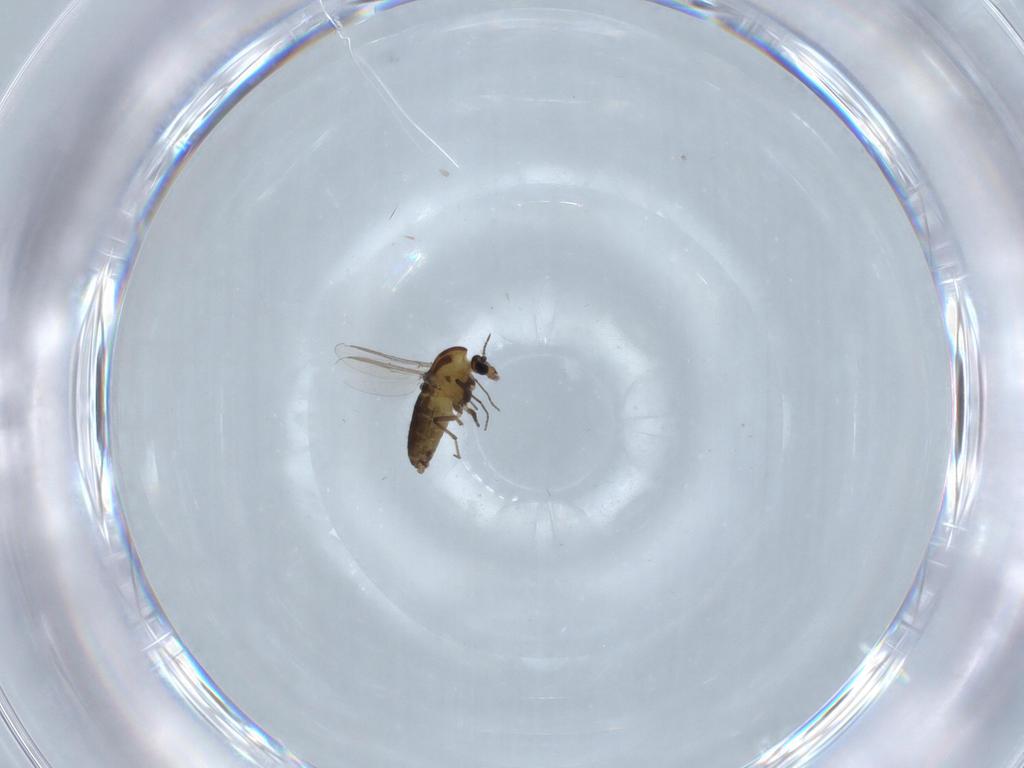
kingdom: Animalia
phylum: Arthropoda
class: Insecta
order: Diptera
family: Chironomidae
